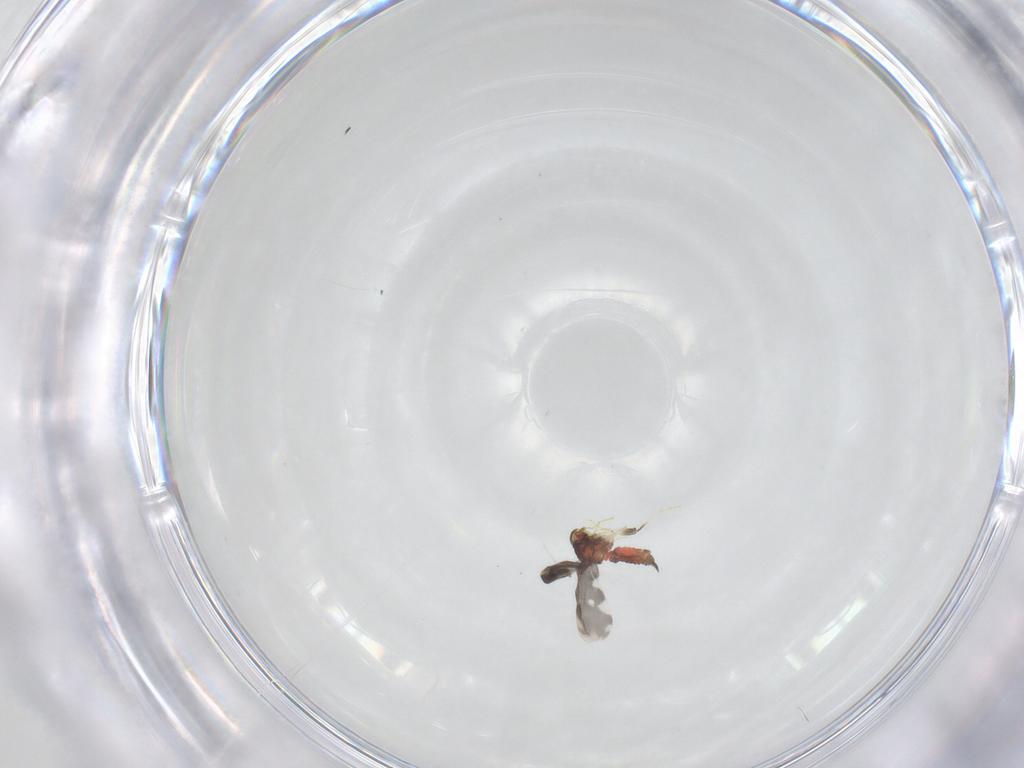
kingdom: Animalia
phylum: Arthropoda
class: Insecta
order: Hemiptera
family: Aleyrodidae
